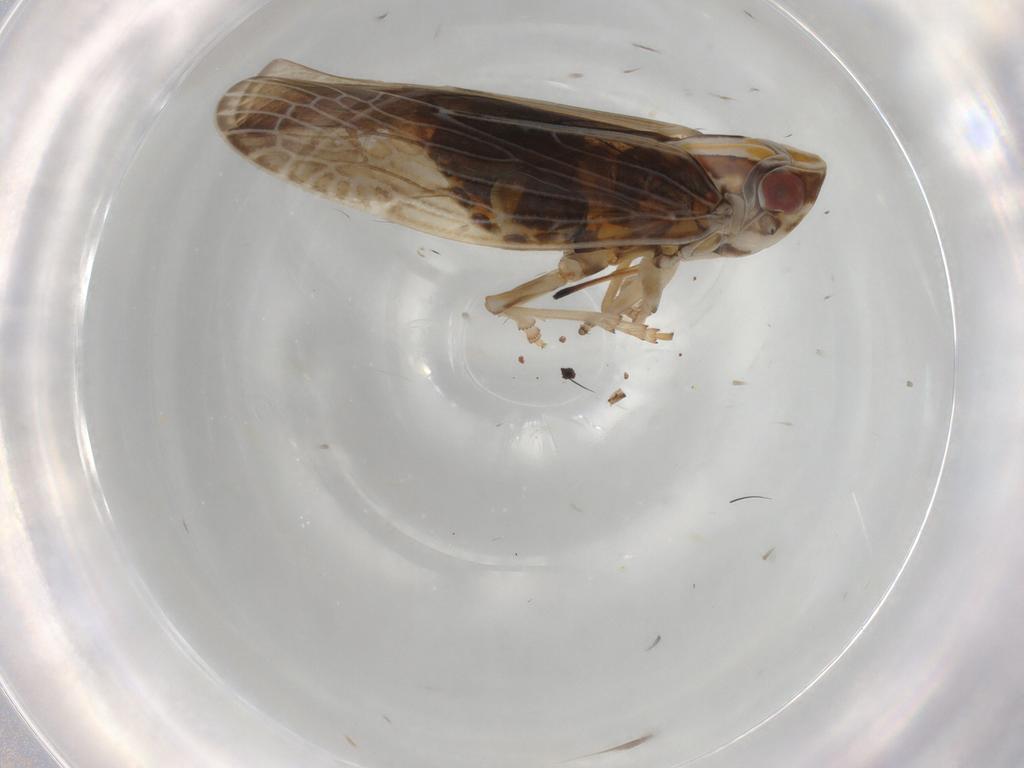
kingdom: Animalia
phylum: Arthropoda
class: Insecta
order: Hemiptera
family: Achilidae
